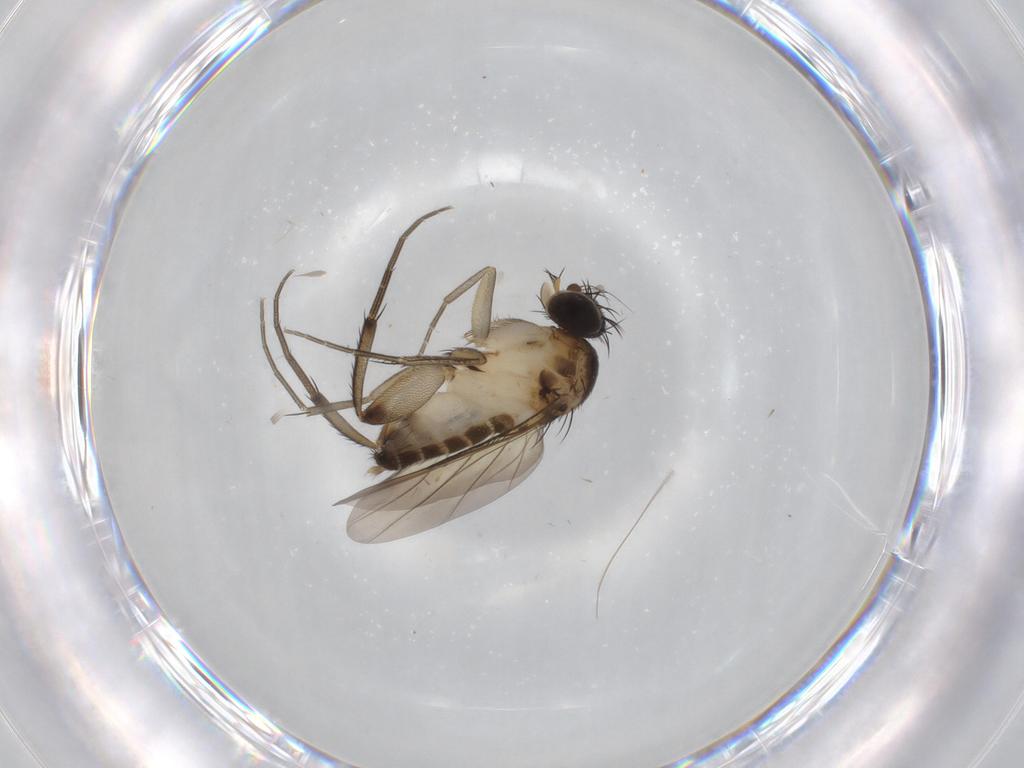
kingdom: Animalia
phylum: Arthropoda
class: Insecta
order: Diptera
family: Phoridae
